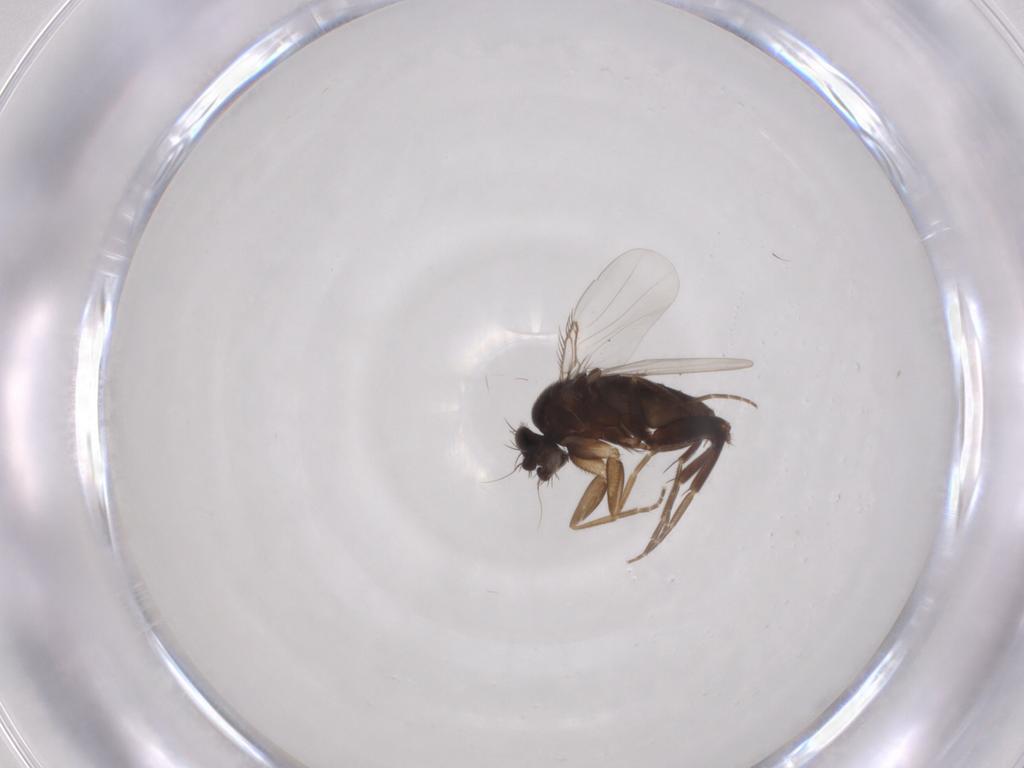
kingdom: Animalia
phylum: Arthropoda
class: Insecta
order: Diptera
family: Phoridae
